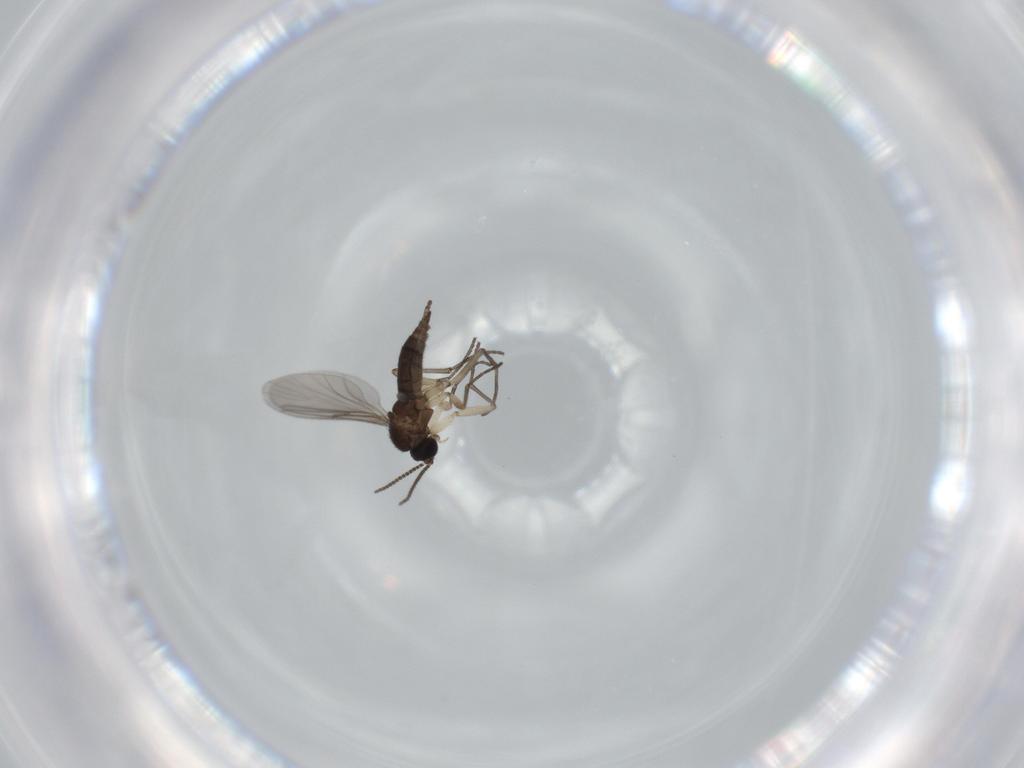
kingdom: Animalia
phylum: Arthropoda
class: Insecta
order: Diptera
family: Sciaridae
